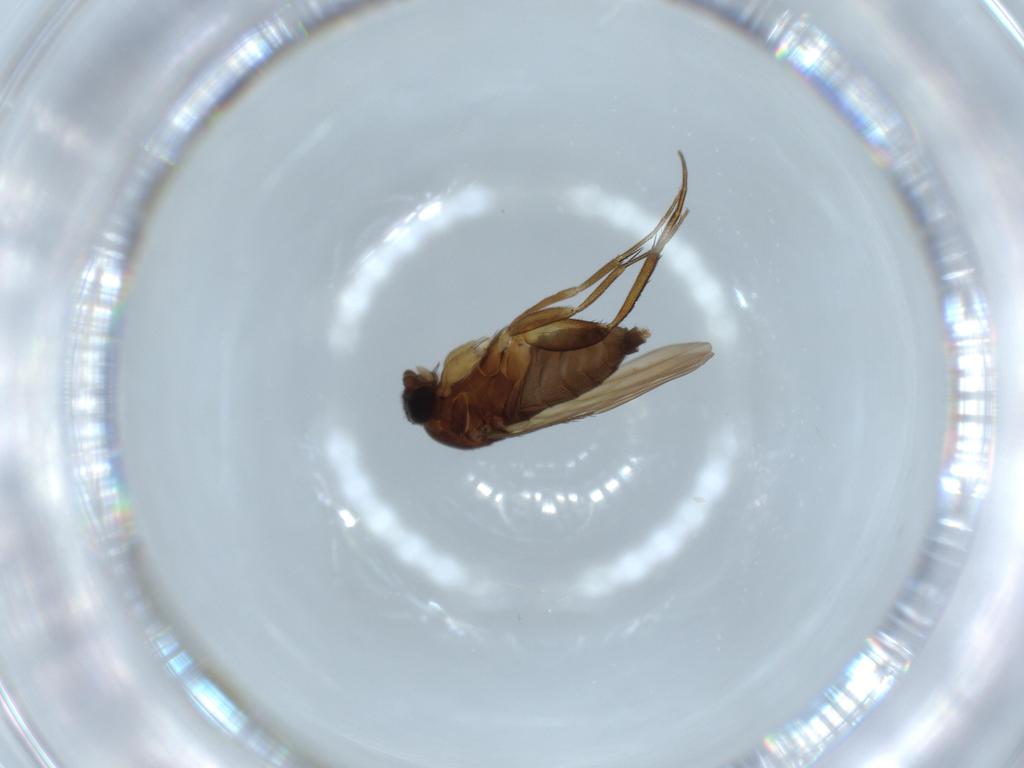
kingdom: Animalia
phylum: Arthropoda
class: Insecta
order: Diptera
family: Phoridae
